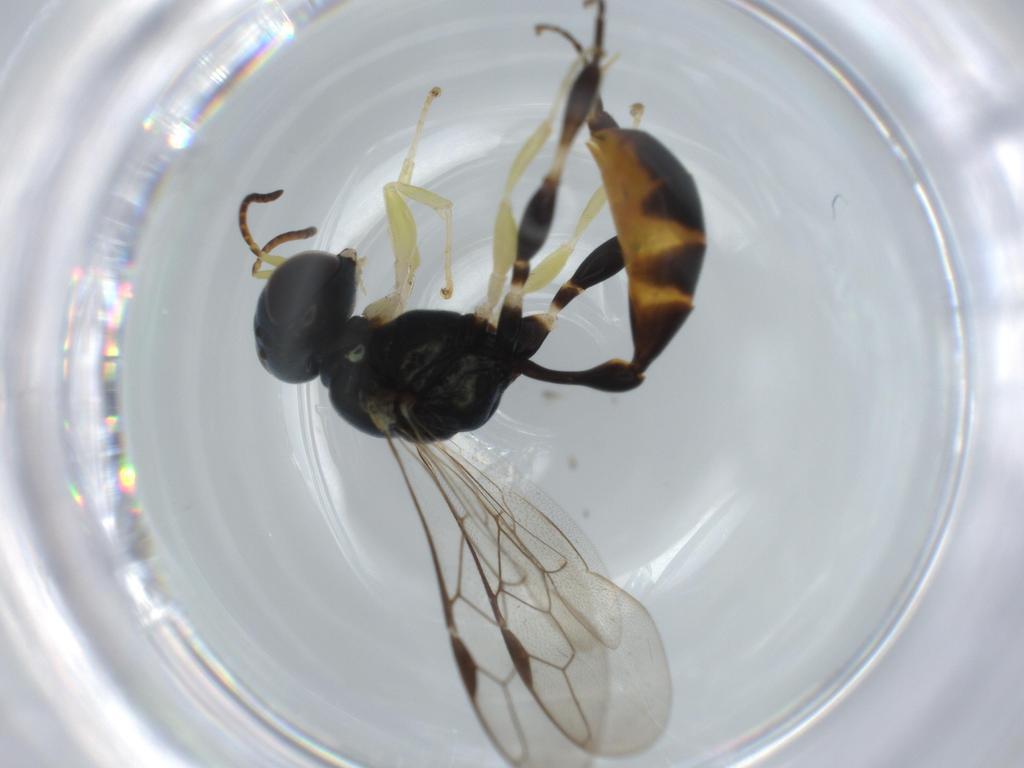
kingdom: Animalia
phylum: Arthropoda
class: Insecta
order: Hymenoptera
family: Crabronidae
